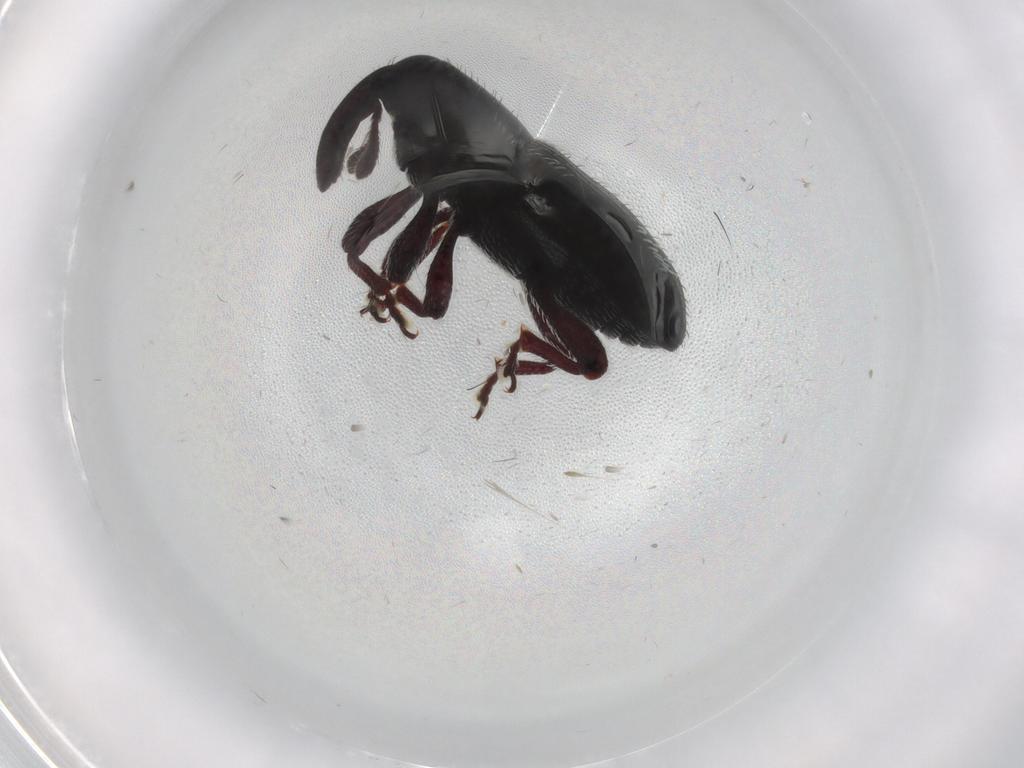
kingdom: Animalia
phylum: Arthropoda
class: Insecta
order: Coleoptera
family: Curculionidae
